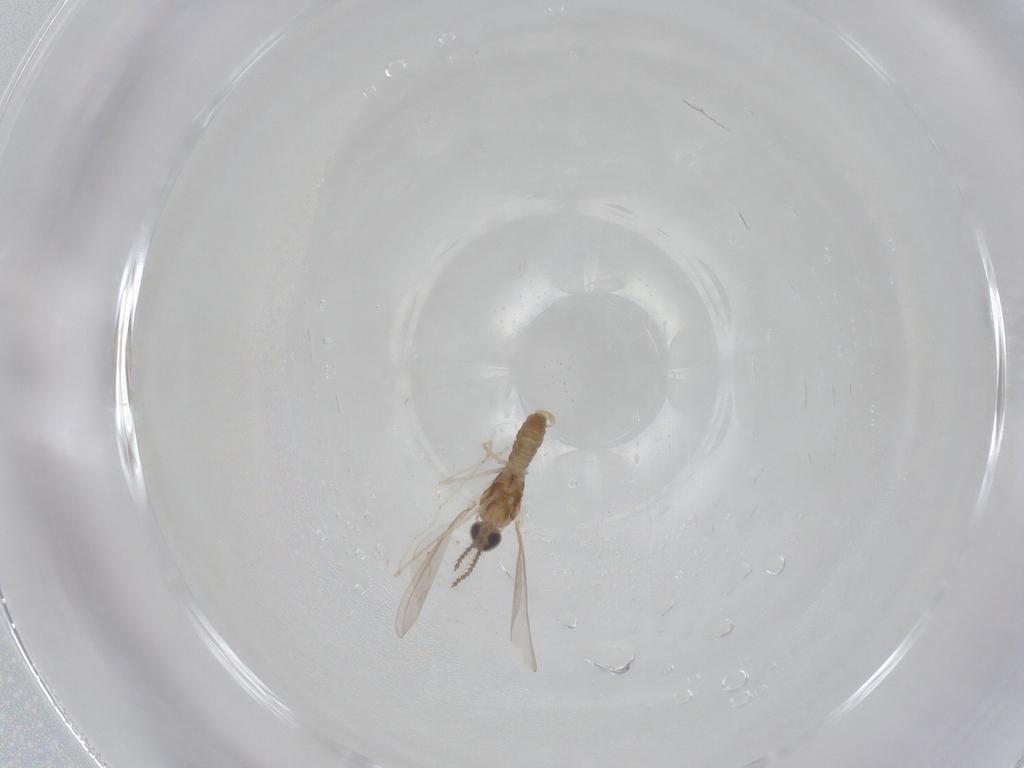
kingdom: Animalia
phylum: Arthropoda
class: Insecta
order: Diptera
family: Cecidomyiidae
